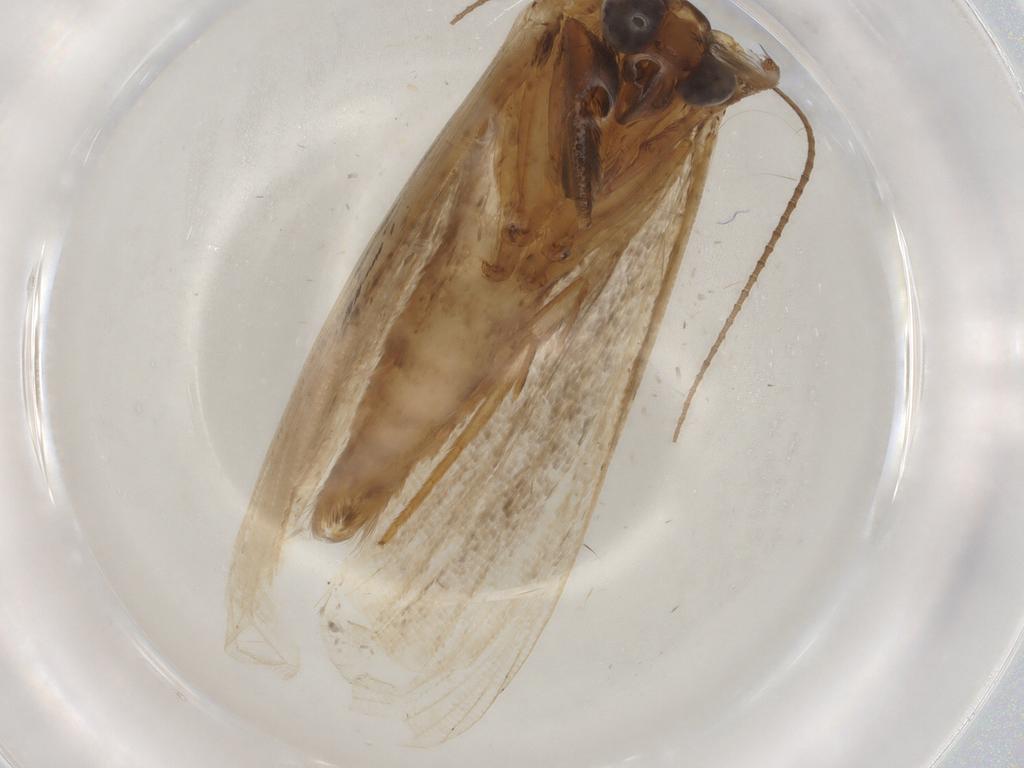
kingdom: Animalia
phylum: Arthropoda
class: Insecta
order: Lepidoptera
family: Erebidae
